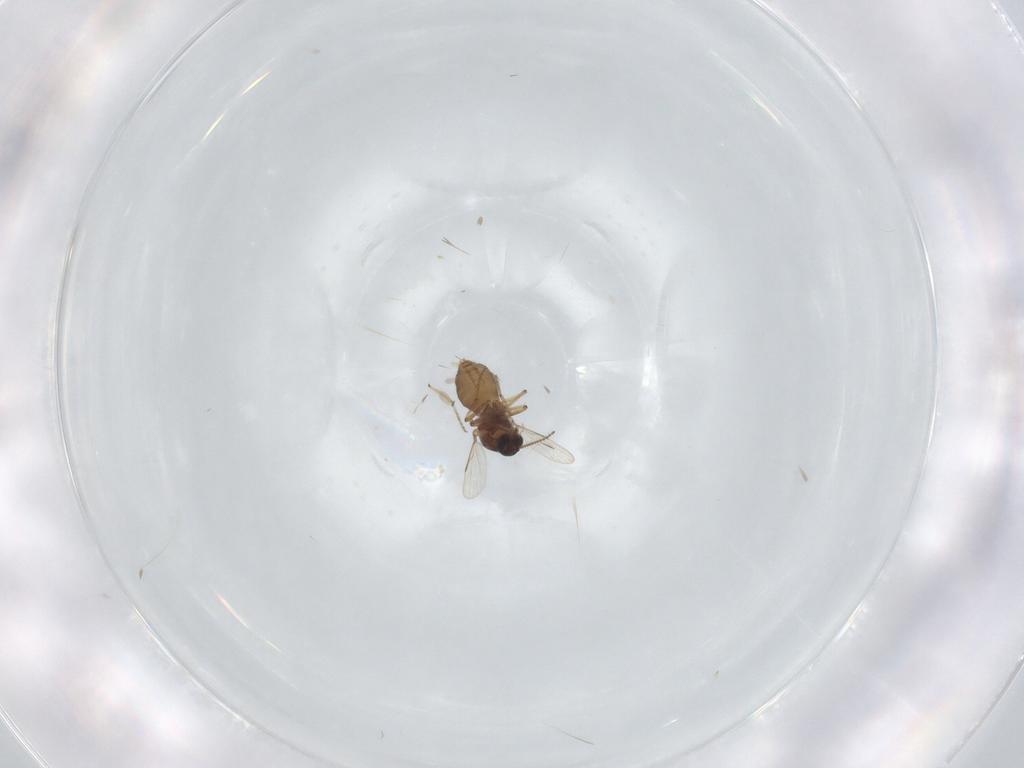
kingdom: Animalia
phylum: Arthropoda
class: Insecta
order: Diptera
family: Ceratopogonidae
